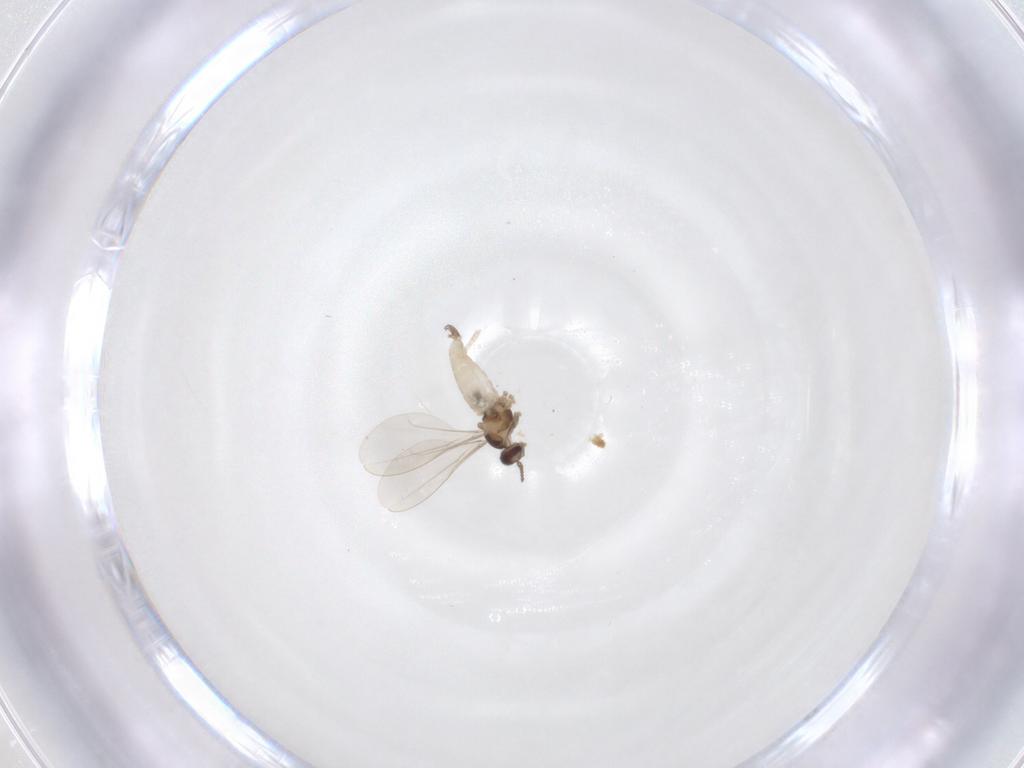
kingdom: Animalia
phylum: Arthropoda
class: Insecta
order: Diptera
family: Cecidomyiidae
